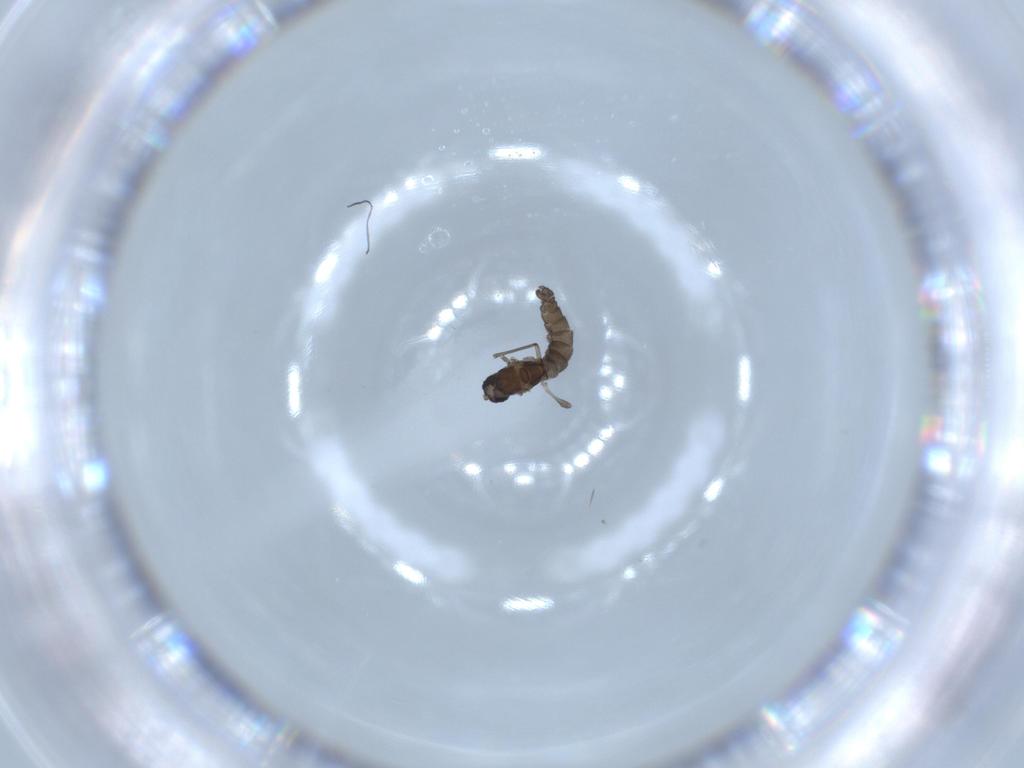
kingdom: Animalia
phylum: Arthropoda
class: Insecta
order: Diptera
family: Cecidomyiidae
